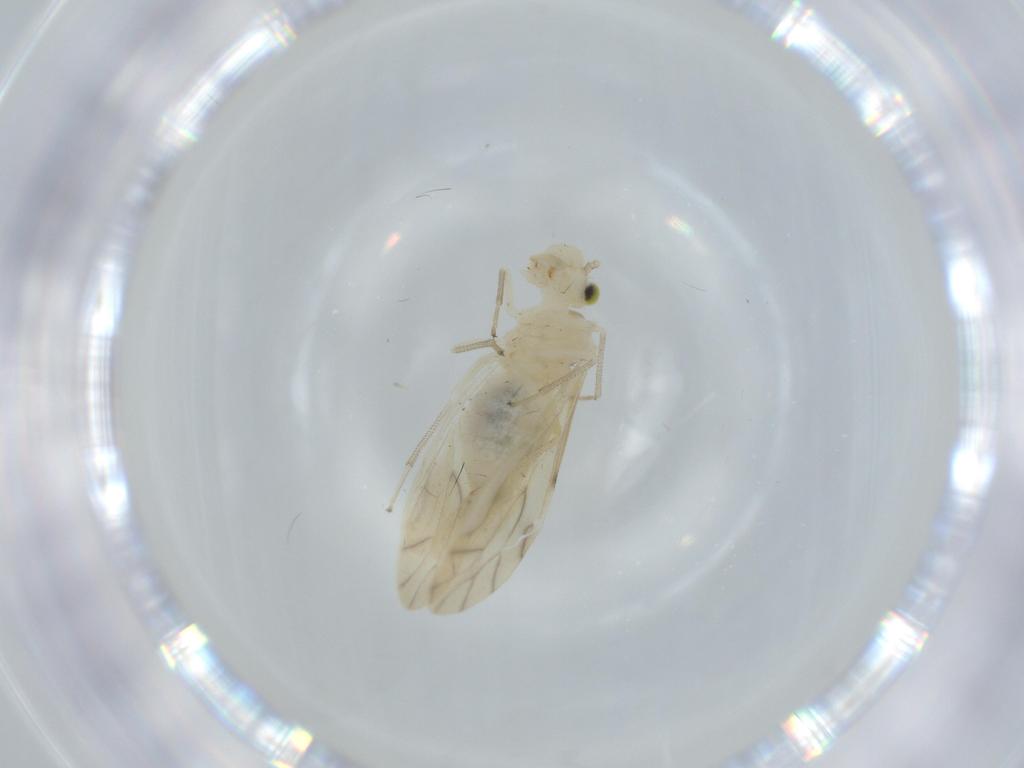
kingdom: Animalia
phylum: Arthropoda
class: Insecta
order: Psocodea
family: Caeciliusidae
